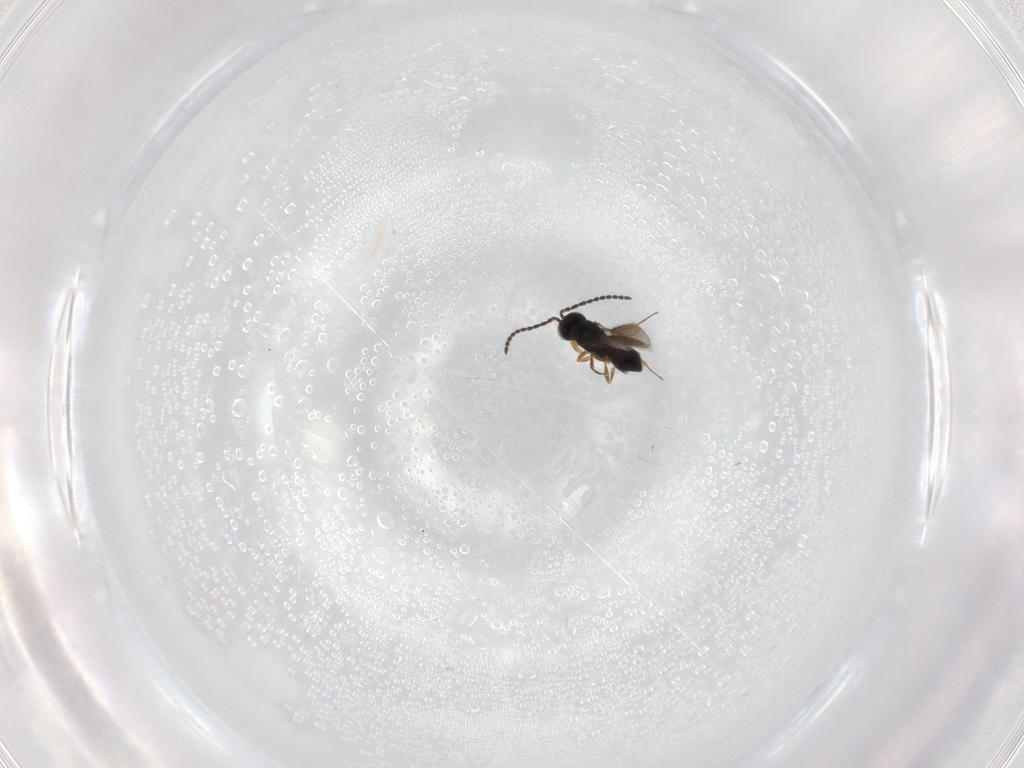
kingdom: Animalia
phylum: Arthropoda
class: Insecta
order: Hymenoptera
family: Scelionidae
